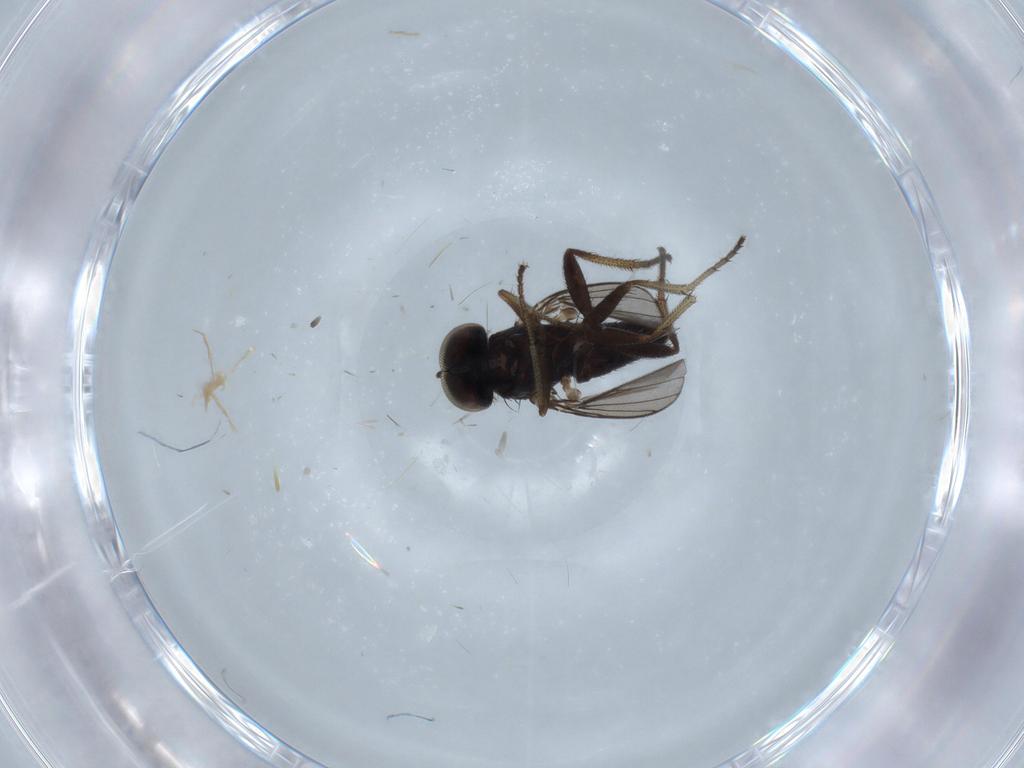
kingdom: Animalia
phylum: Arthropoda
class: Insecta
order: Diptera
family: Dolichopodidae
